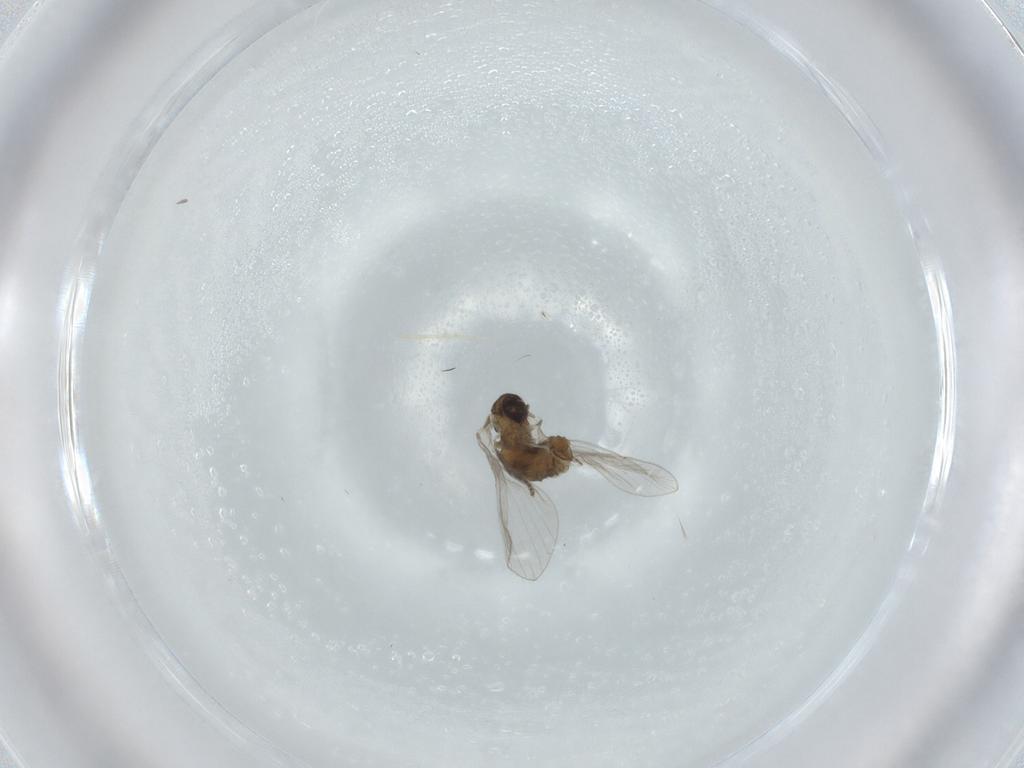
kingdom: Animalia
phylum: Arthropoda
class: Insecta
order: Diptera
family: Psychodidae
